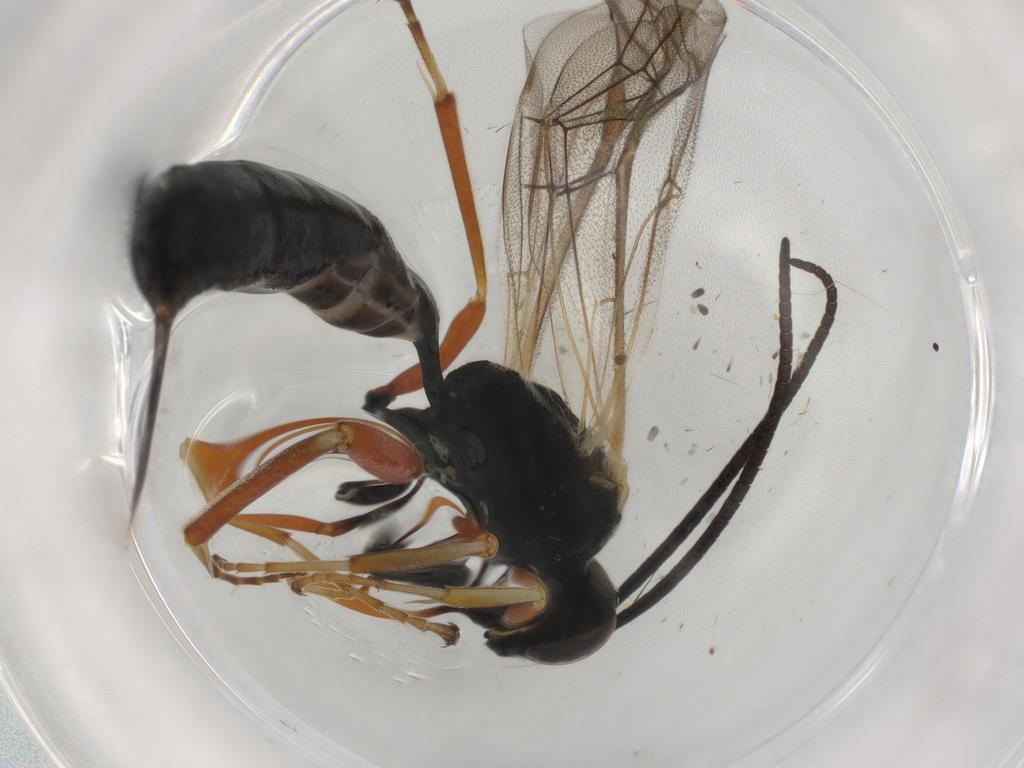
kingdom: Animalia
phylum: Arthropoda
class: Insecta
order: Hymenoptera
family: Ichneumonidae
